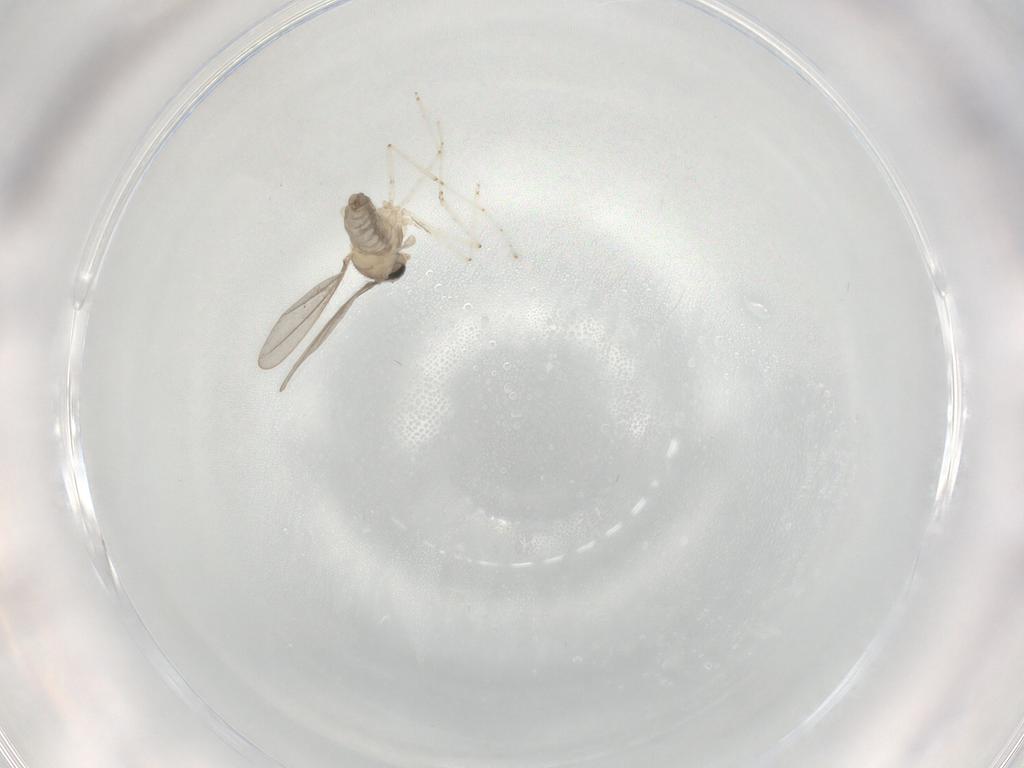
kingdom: Animalia
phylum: Arthropoda
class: Insecta
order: Diptera
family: Cecidomyiidae
